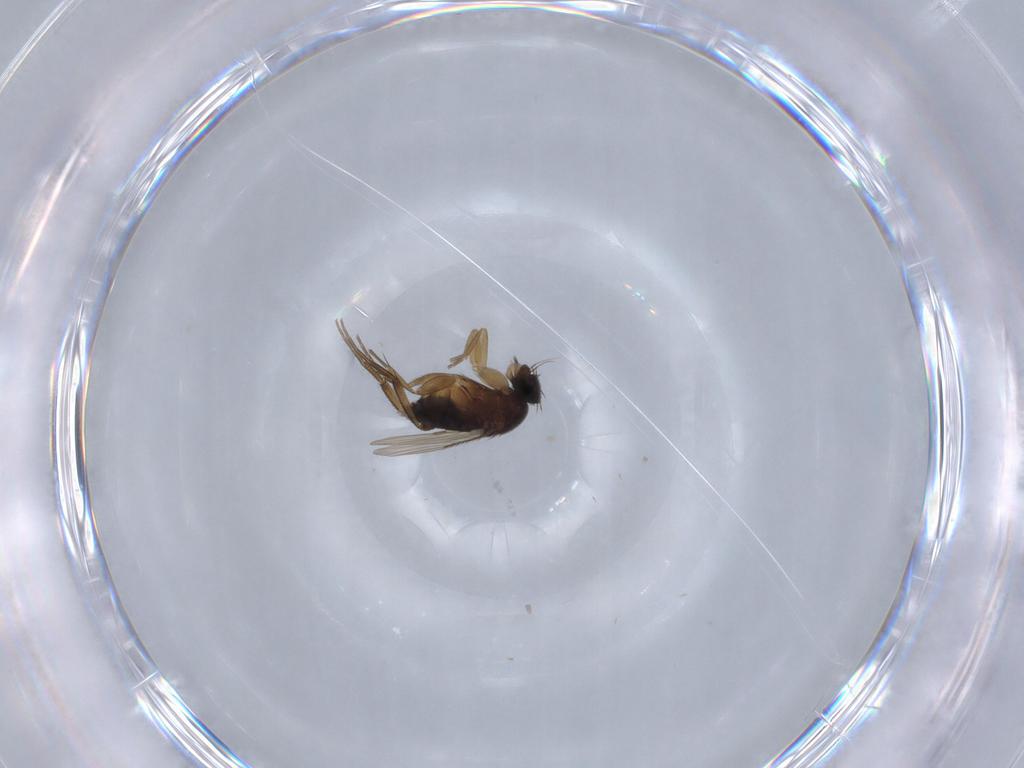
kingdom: Animalia
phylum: Arthropoda
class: Insecta
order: Diptera
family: Phoridae
